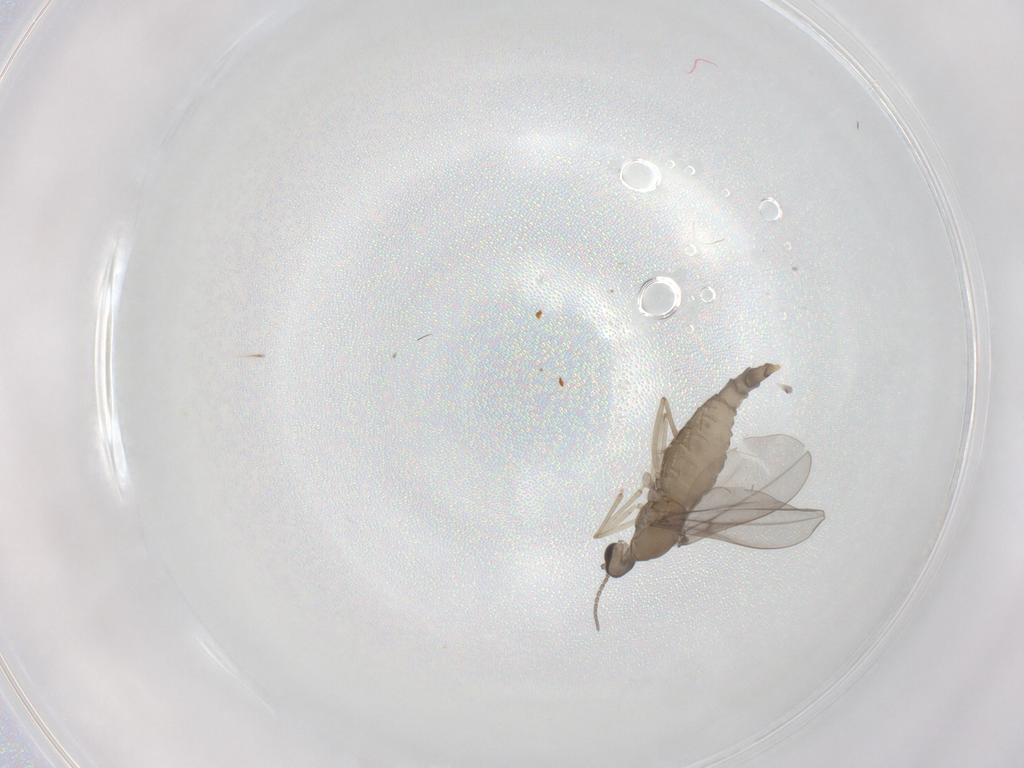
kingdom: Animalia
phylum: Arthropoda
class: Insecta
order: Diptera
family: Cecidomyiidae
